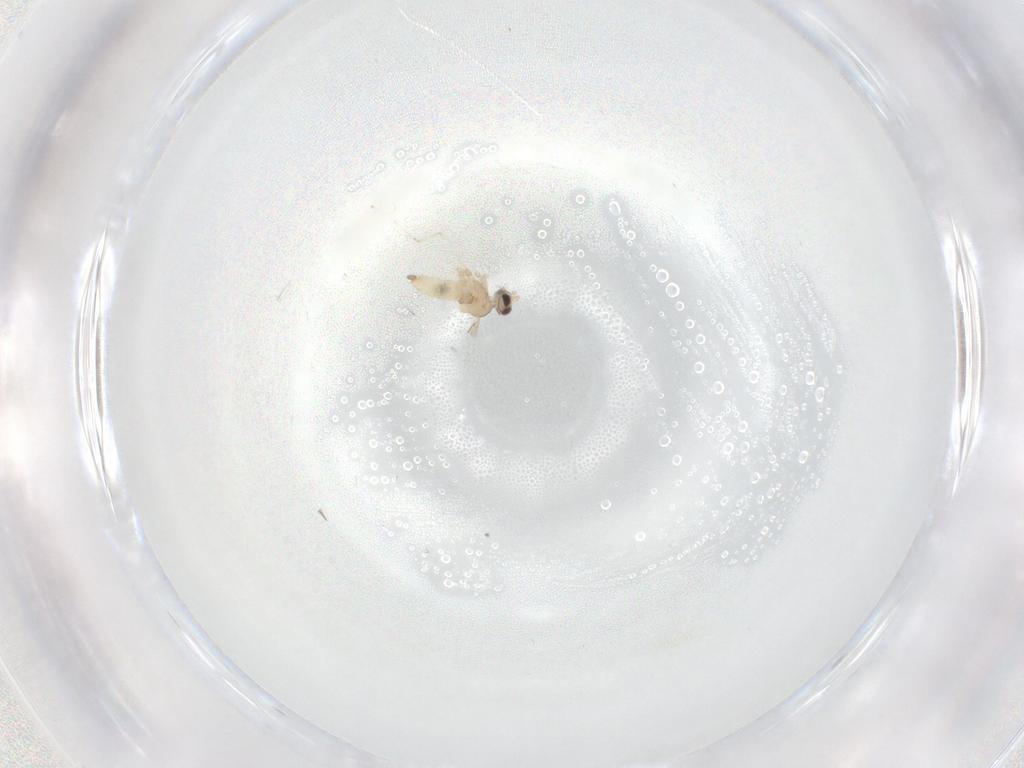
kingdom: Animalia
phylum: Arthropoda
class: Insecta
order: Diptera
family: Cecidomyiidae
